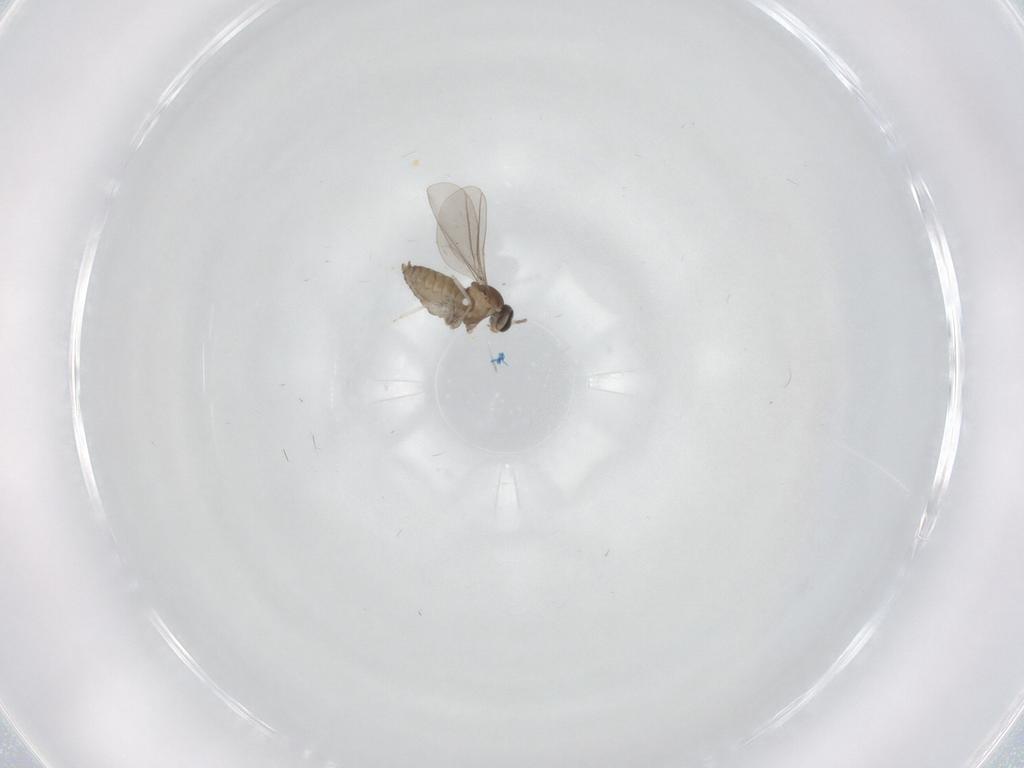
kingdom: Animalia
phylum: Arthropoda
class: Insecta
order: Diptera
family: Cecidomyiidae
